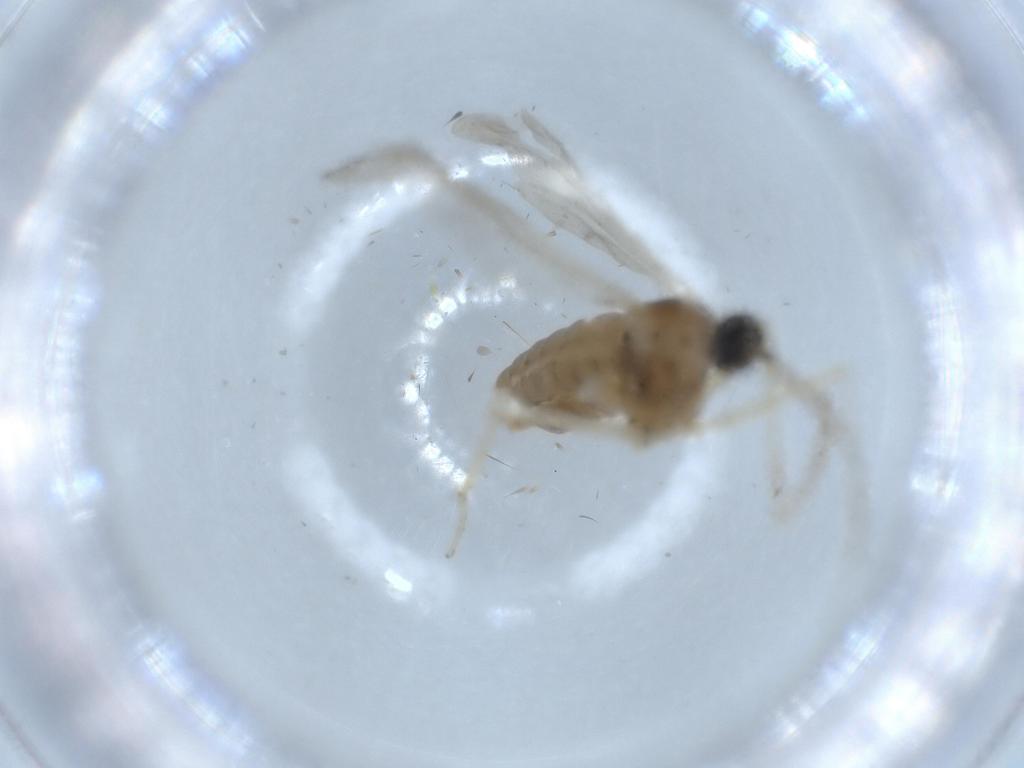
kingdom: Animalia
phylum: Arthropoda
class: Insecta
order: Diptera
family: Cecidomyiidae
